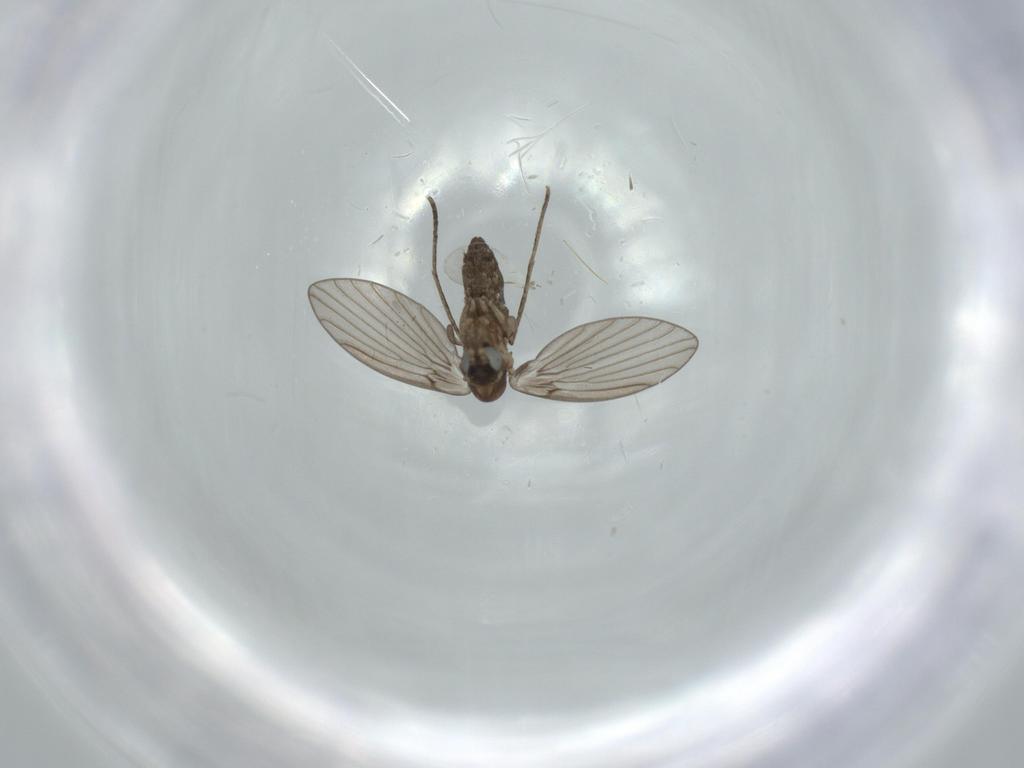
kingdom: Animalia
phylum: Arthropoda
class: Insecta
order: Diptera
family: Psychodidae
